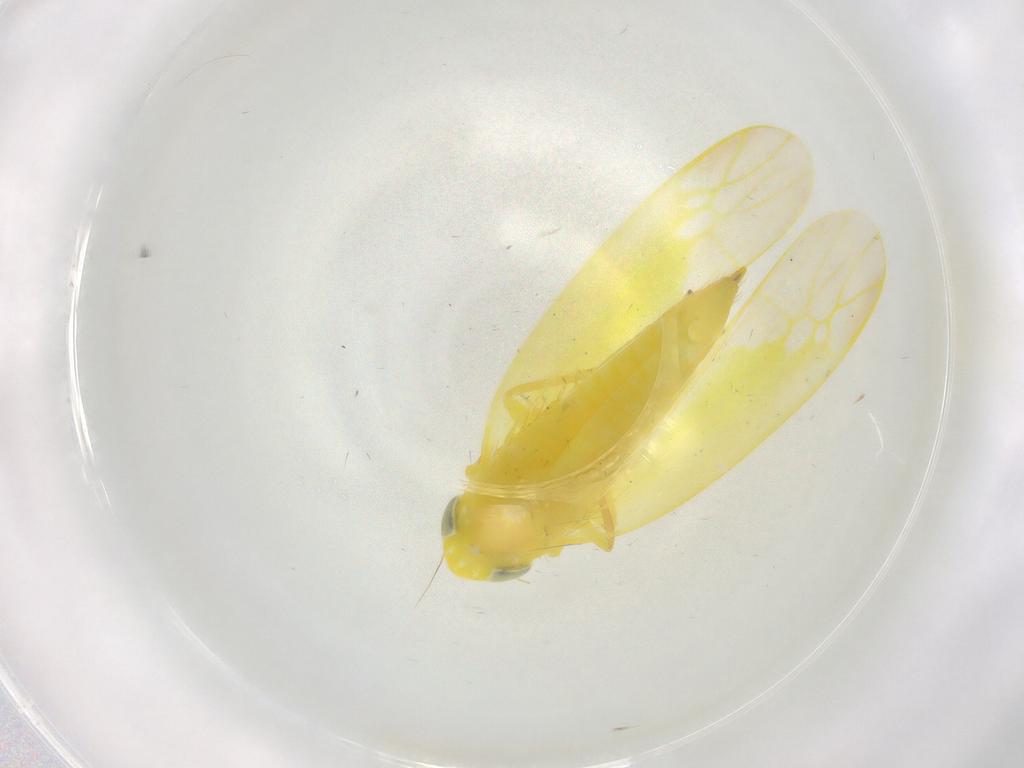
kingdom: Animalia
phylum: Arthropoda
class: Insecta
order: Hemiptera
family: Cicadellidae
